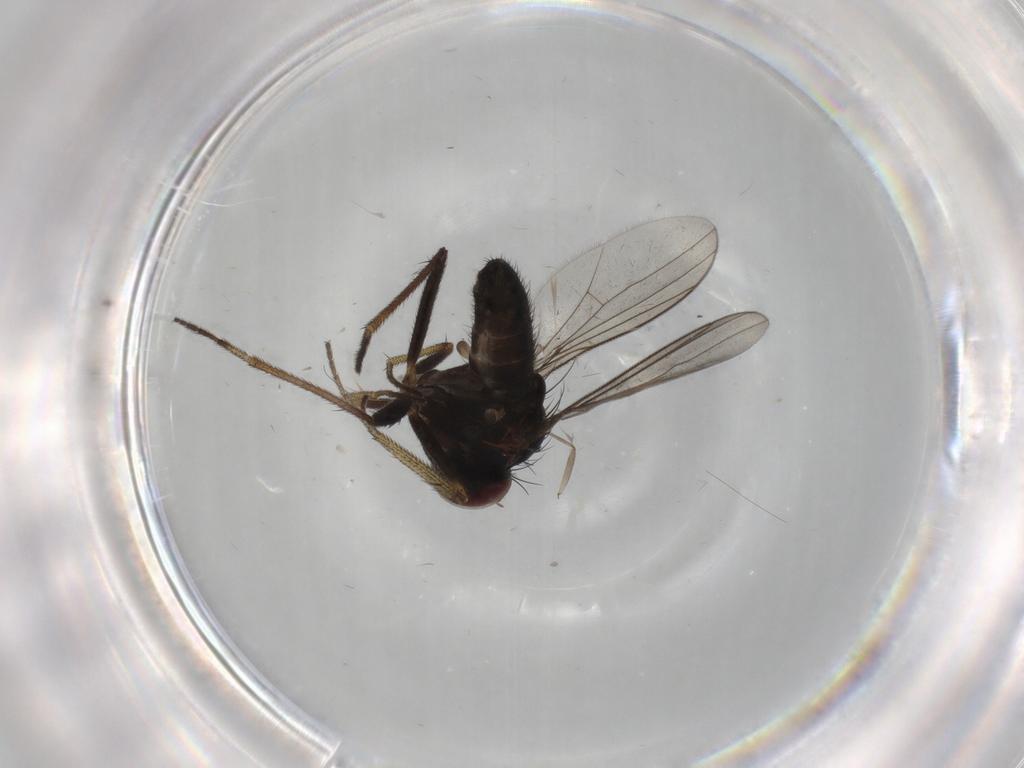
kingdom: Animalia
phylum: Arthropoda
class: Insecta
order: Diptera
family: Sciaridae
